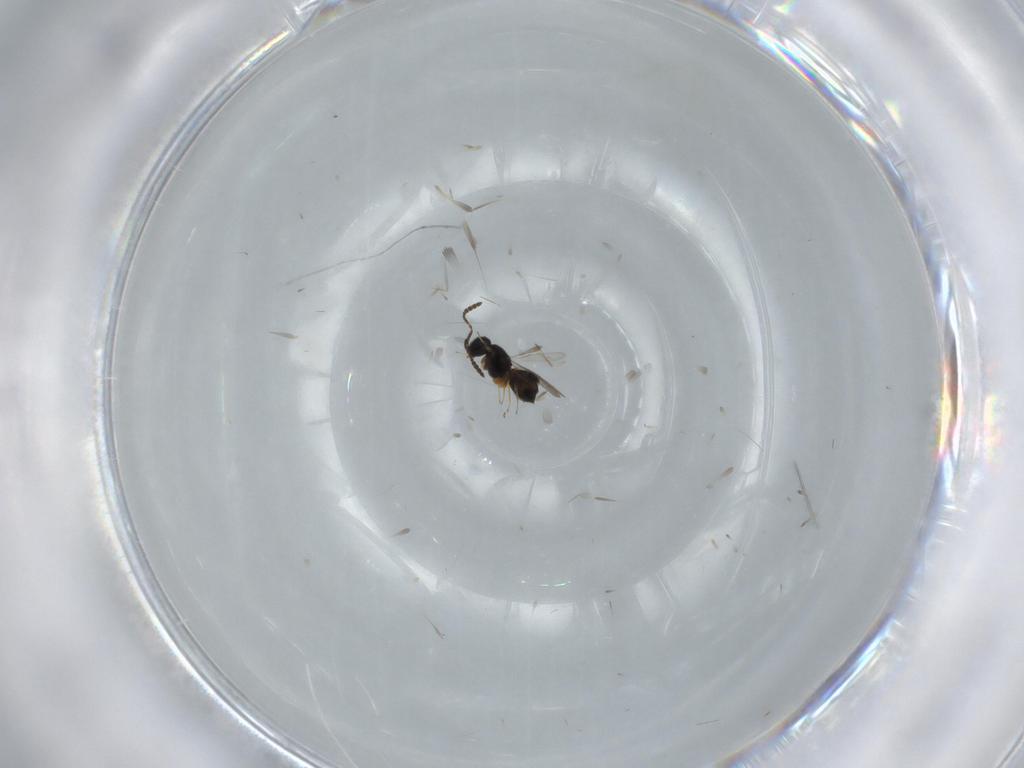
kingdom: Animalia
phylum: Arthropoda
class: Insecta
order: Hymenoptera
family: Scelionidae
